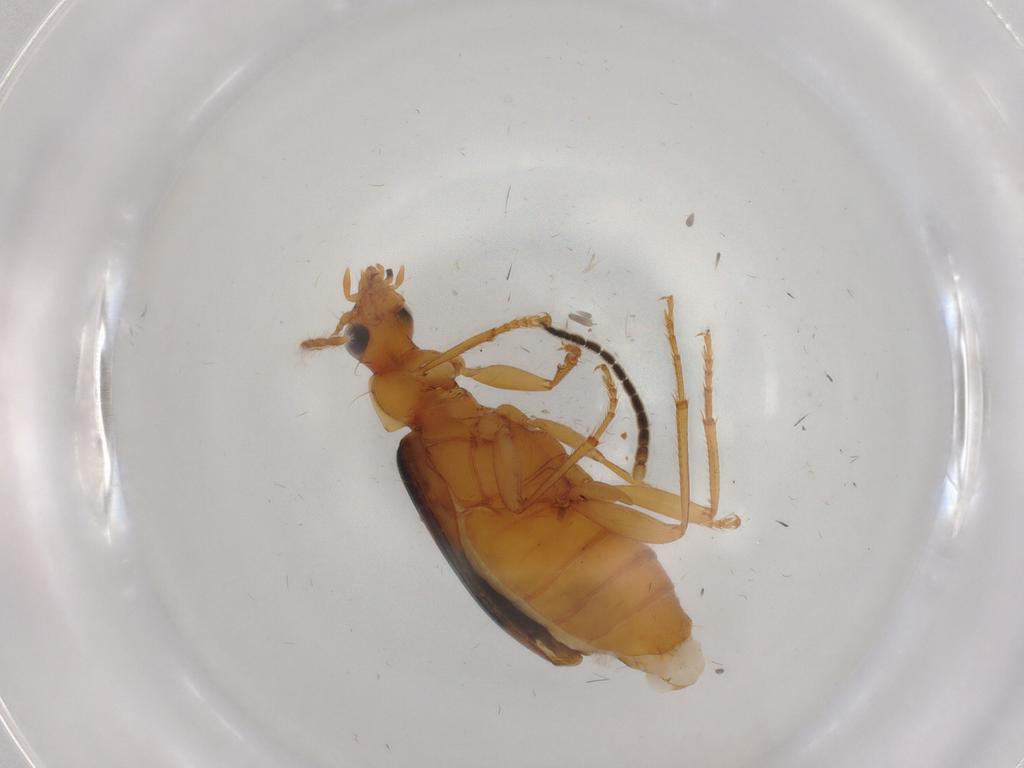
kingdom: Animalia
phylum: Arthropoda
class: Insecta
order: Coleoptera
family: Carabidae
